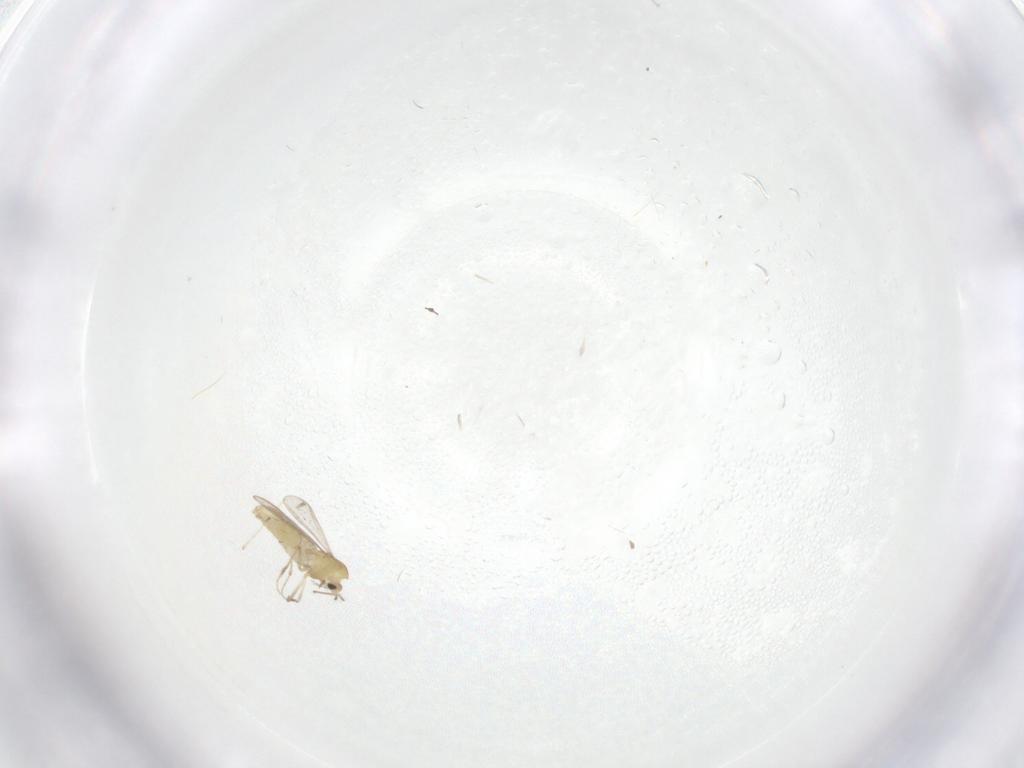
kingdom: Animalia
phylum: Arthropoda
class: Insecta
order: Diptera
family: Chironomidae
